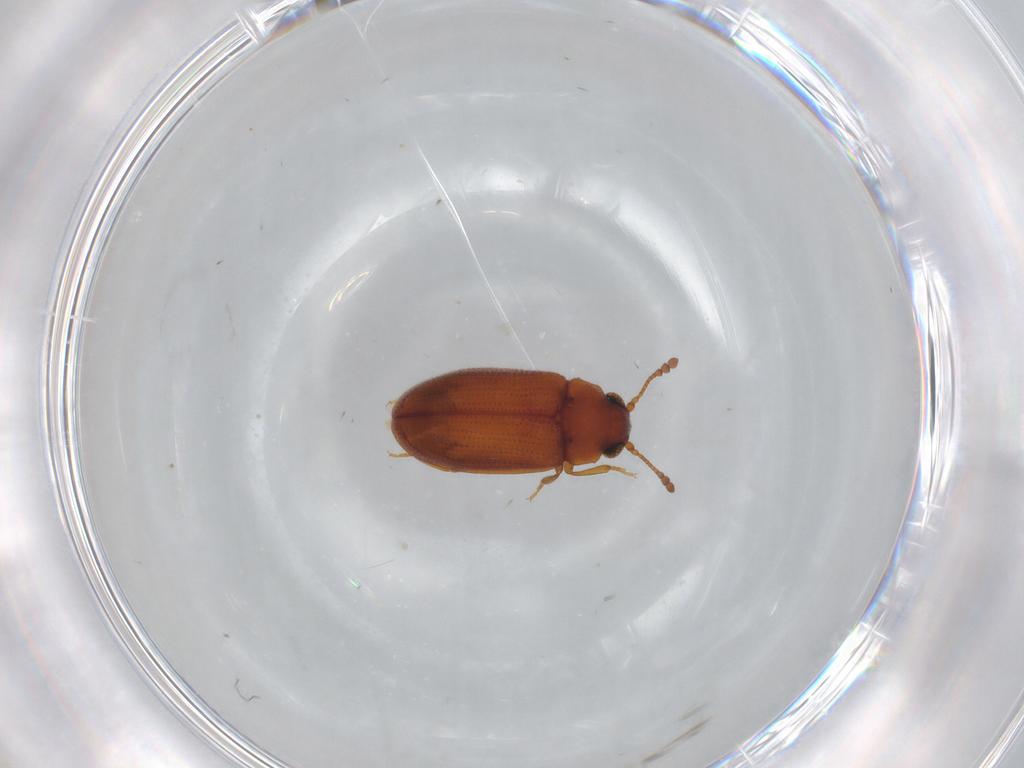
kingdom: Animalia
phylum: Arthropoda
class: Insecta
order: Coleoptera
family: Erotylidae
